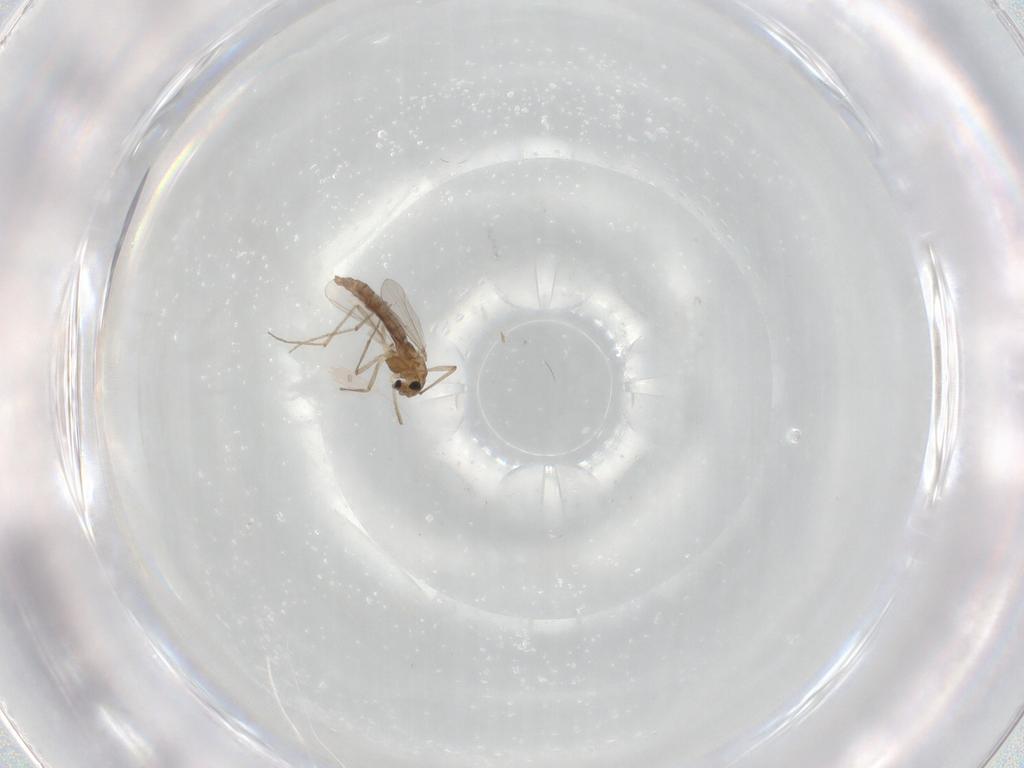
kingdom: Animalia
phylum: Arthropoda
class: Insecta
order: Diptera
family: Chironomidae
